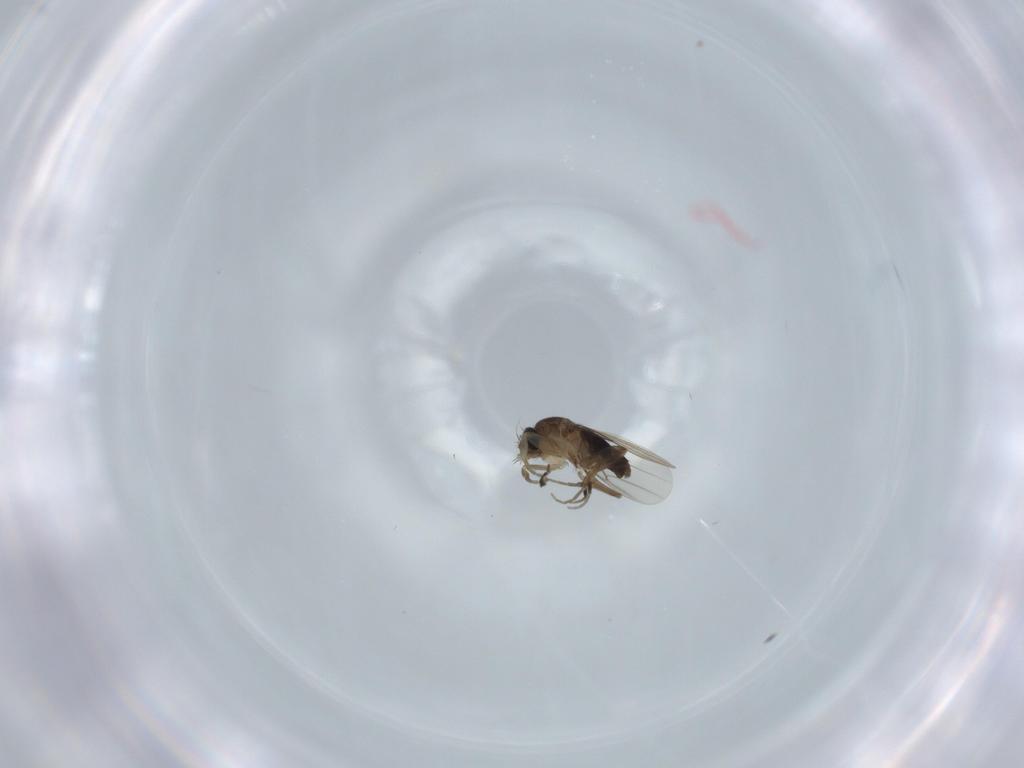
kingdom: Animalia
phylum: Arthropoda
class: Insecta
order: Diptera
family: Phoridae
